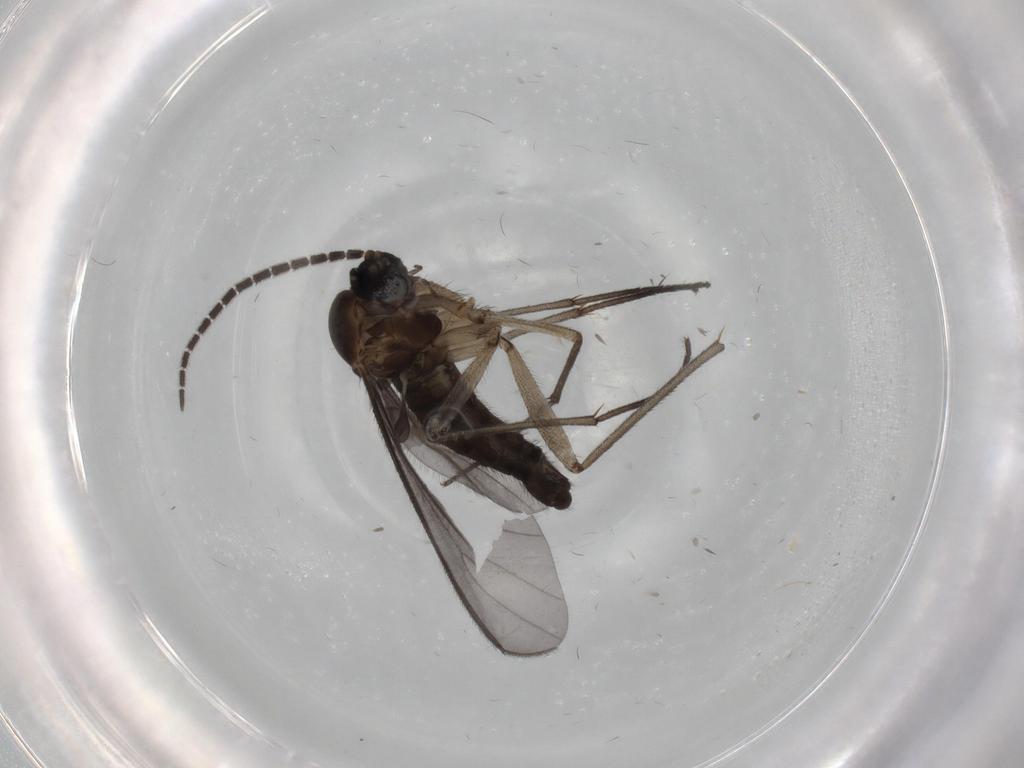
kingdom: Animalia
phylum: Arthropoda
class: Insecta
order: Diptera
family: Sciaridae
